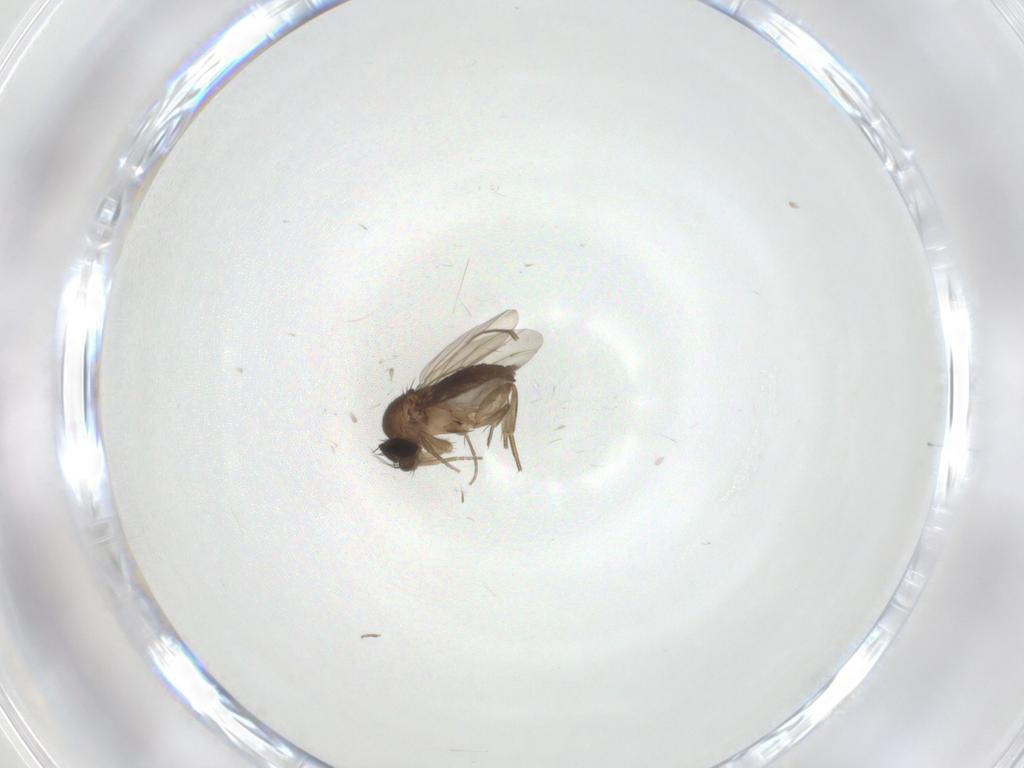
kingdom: Animalia
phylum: Arthropoda
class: Insecta
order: Diptera
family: Phoridae
